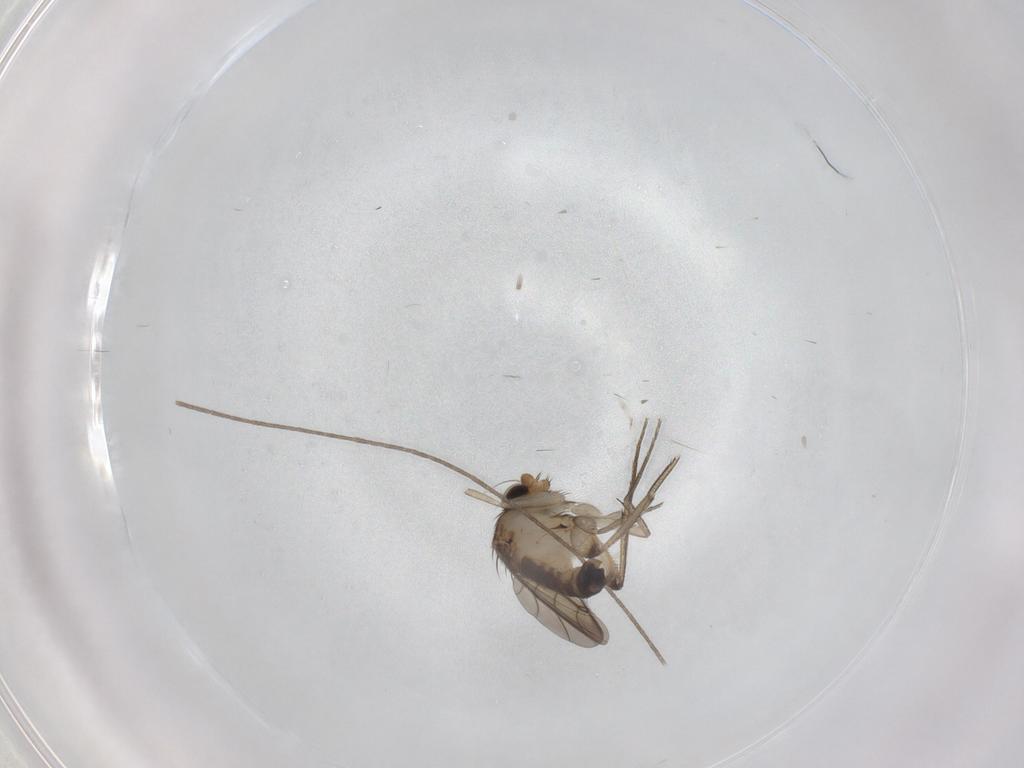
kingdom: Animalia
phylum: Arthropoda
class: Insecta
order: Diptera
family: Phoridae
